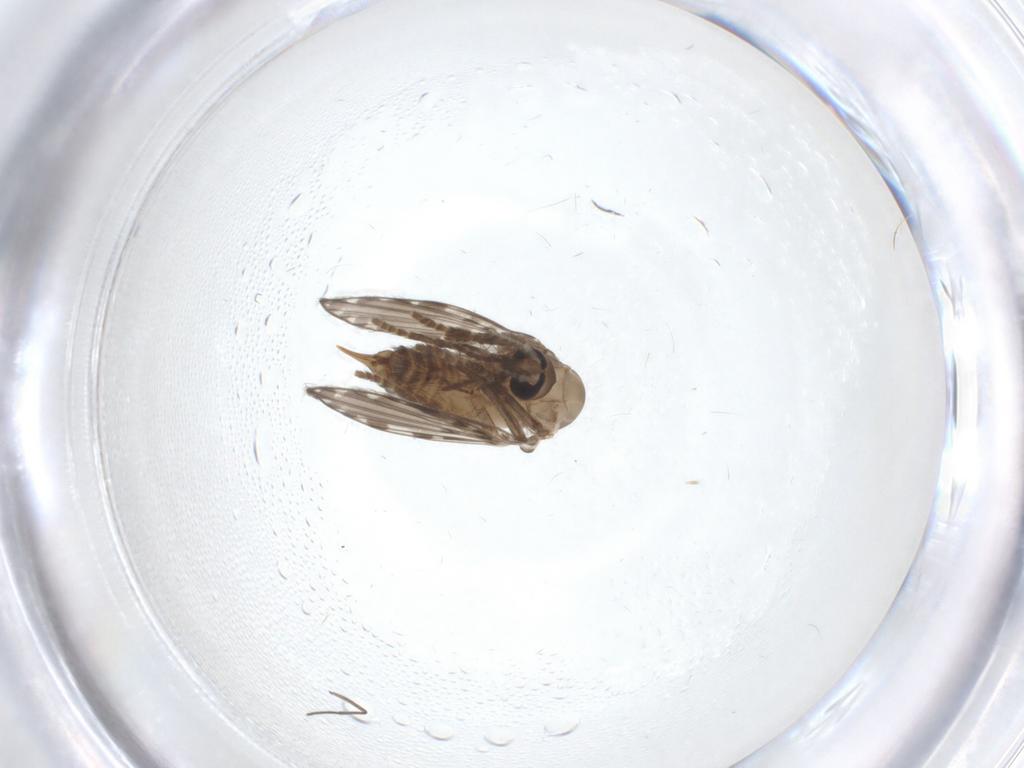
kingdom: Animalia
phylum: Arthropoda
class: Insecta
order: Diptera
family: Psychodidae
